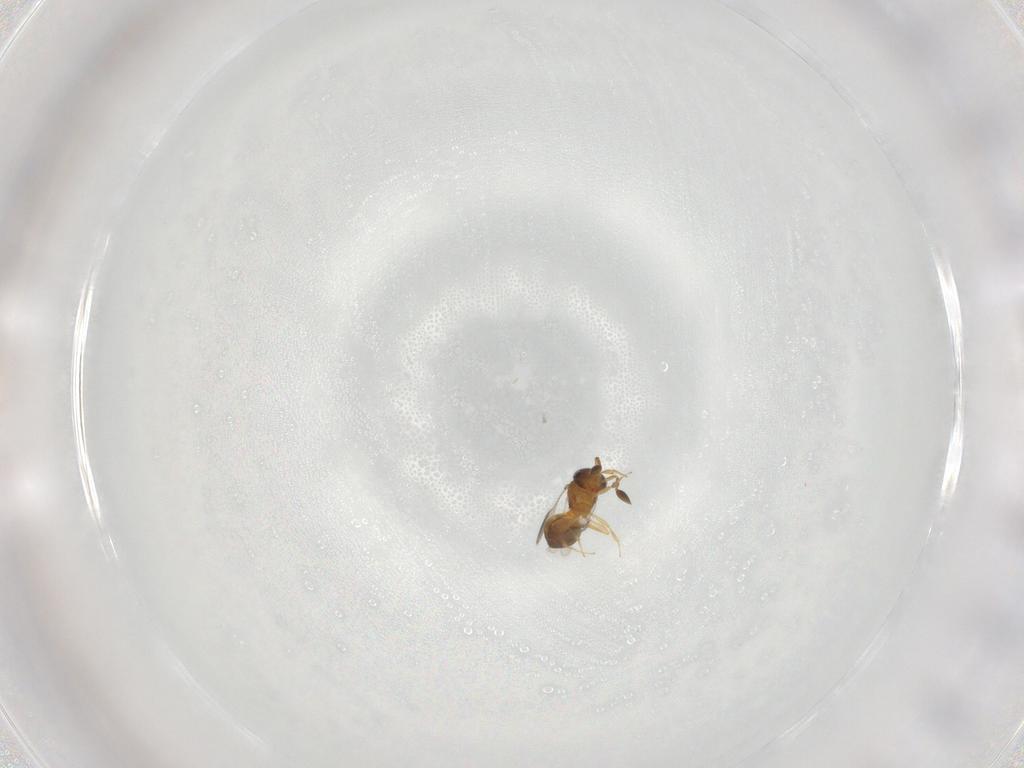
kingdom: Animalia
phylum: Arthropoda
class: Insecta
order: Hymenoptera
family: Scelionidae
